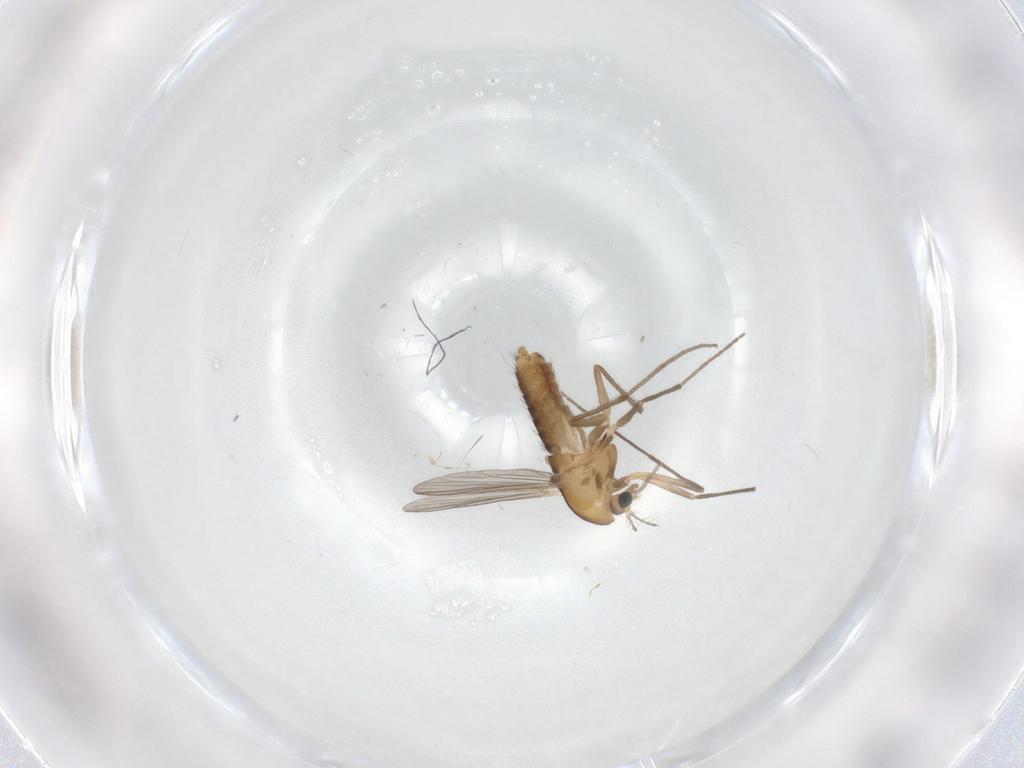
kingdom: Animalia
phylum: Arthropoda
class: Insecta
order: Diptera
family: Chironomidae
